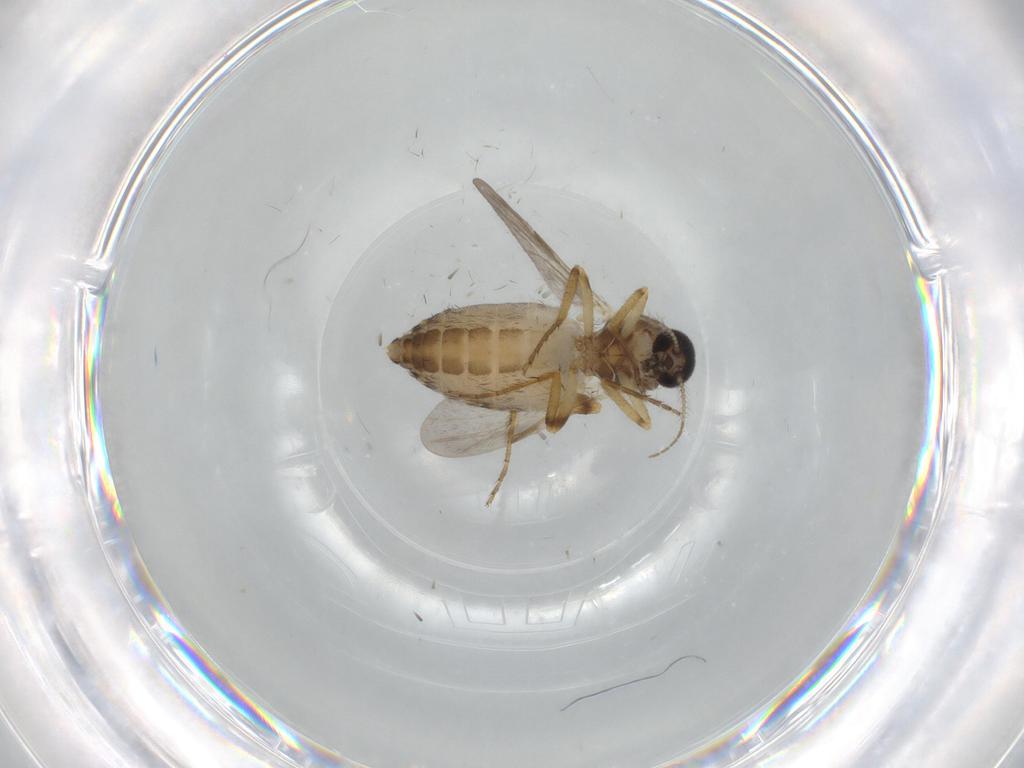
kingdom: Animalia
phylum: Arthropoda
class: Insecta
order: Diptera
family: Ceratopogonidae
